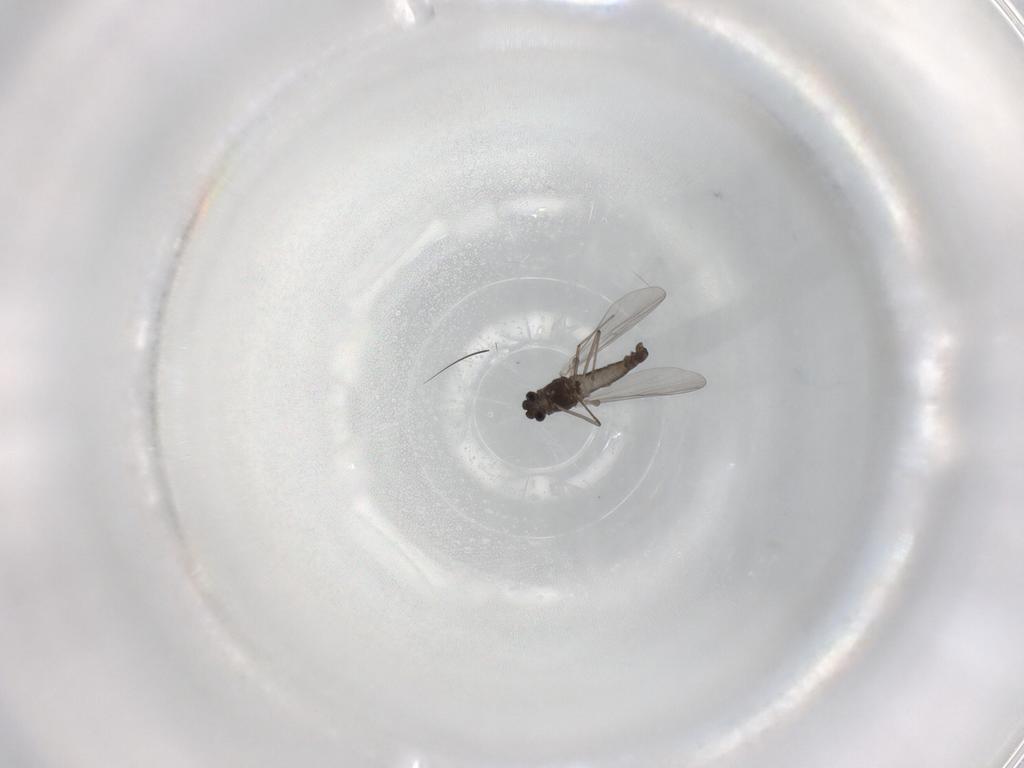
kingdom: Animalia
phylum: Arthropoda
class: Insecta
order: Diptera
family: Chironomidae
